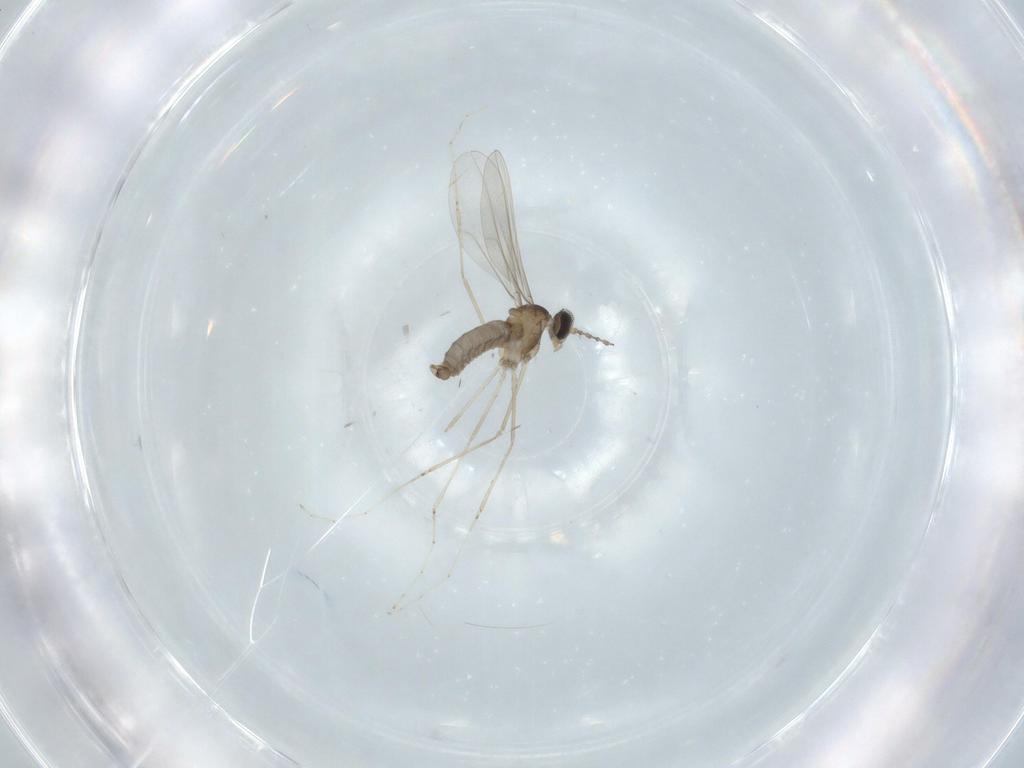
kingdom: Animalia
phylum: Arthropoda
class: Insecta
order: Diptera
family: Cecidomyiidae
